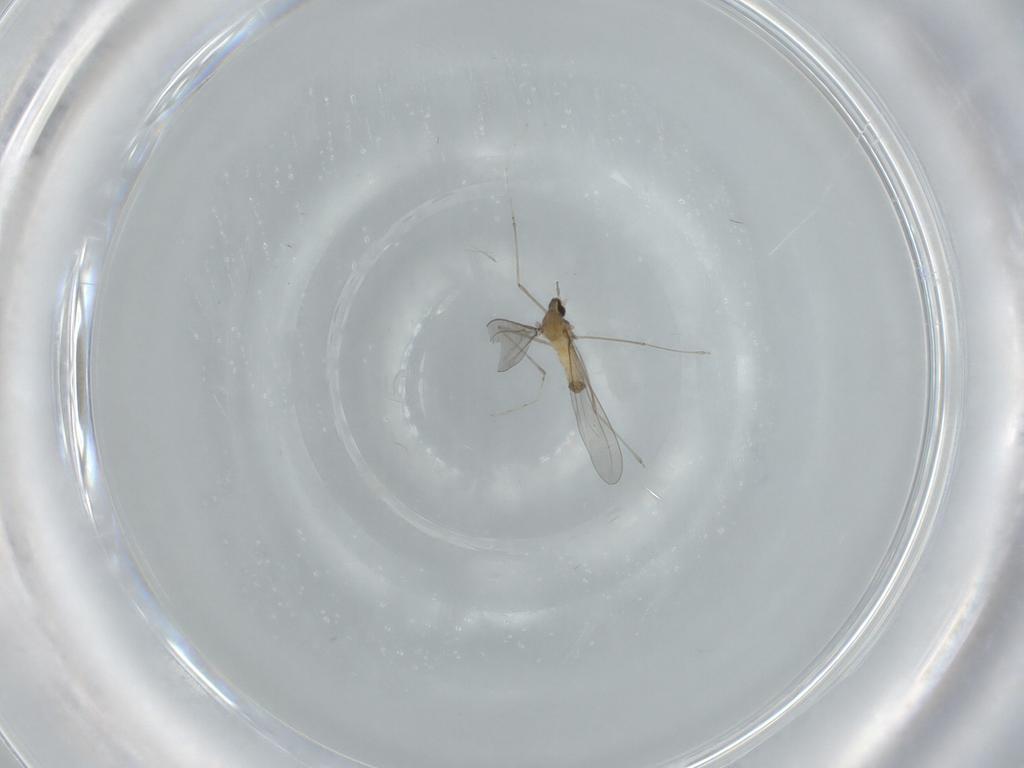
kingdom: Animalia
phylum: Arthropoda
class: Insecta
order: Diptera
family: Cecidomyiidae
